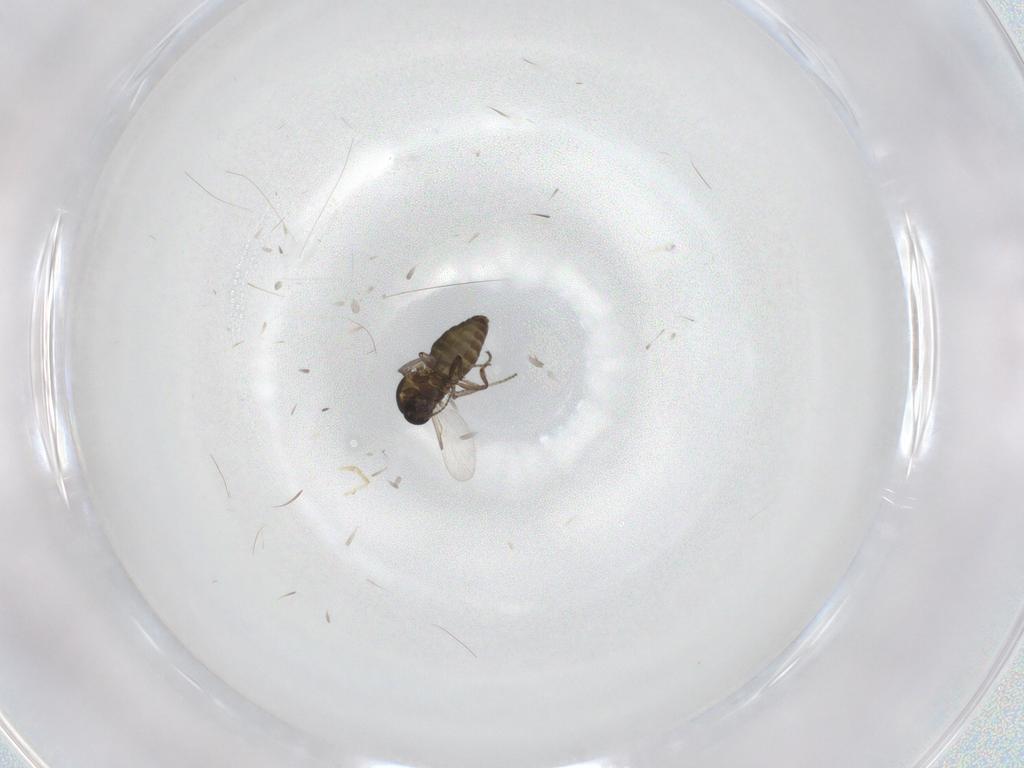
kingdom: Animalia
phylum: Arthropoda
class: Insecta
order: Diptera
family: Ceratopogonidae
